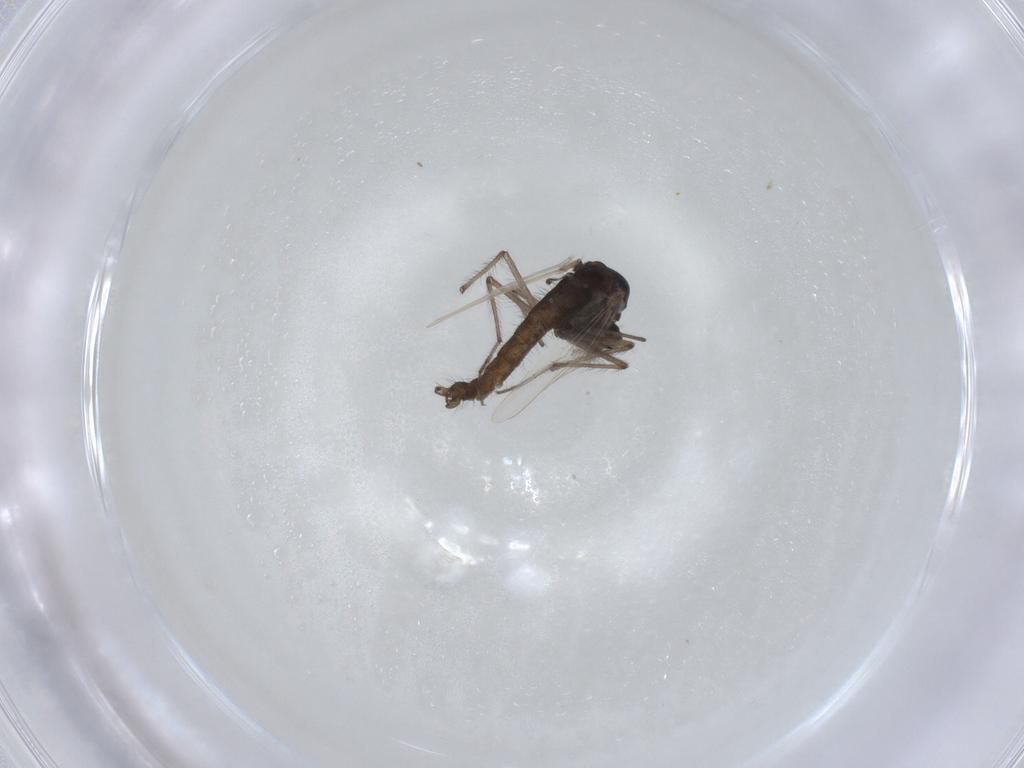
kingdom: Animalia
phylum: Arthropoda
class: Insecta
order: Diptera
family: Chironomidae
